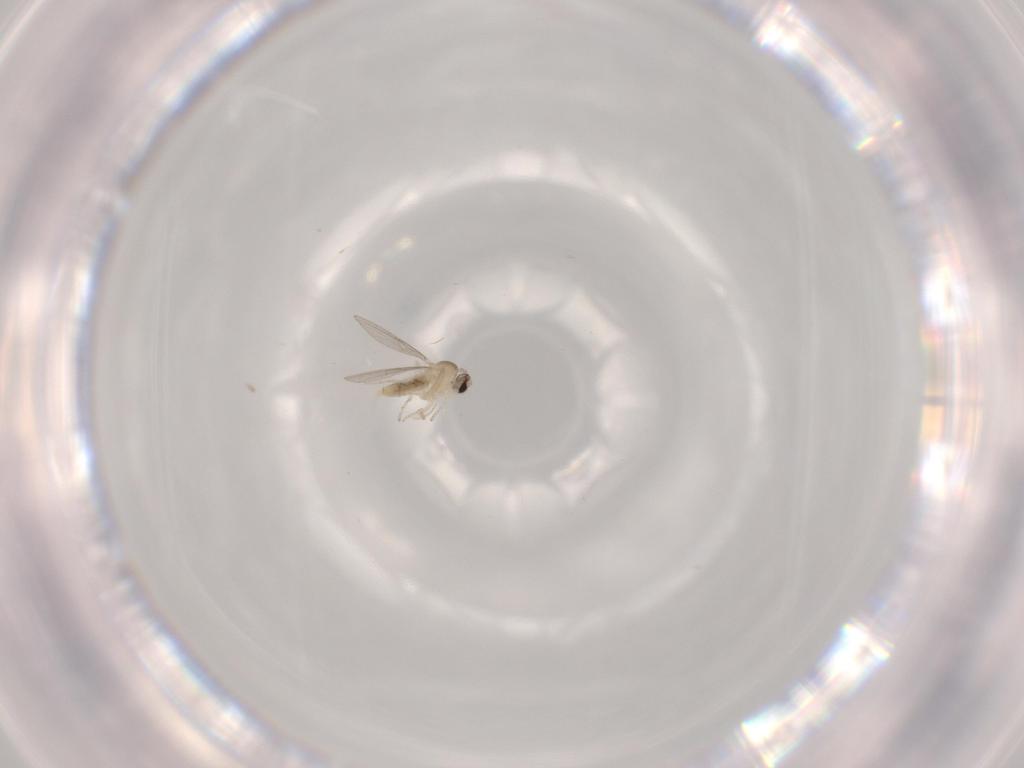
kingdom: Animalia
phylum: Arthropoda
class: Insecta
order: Diptera
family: Cecidomyiidae
